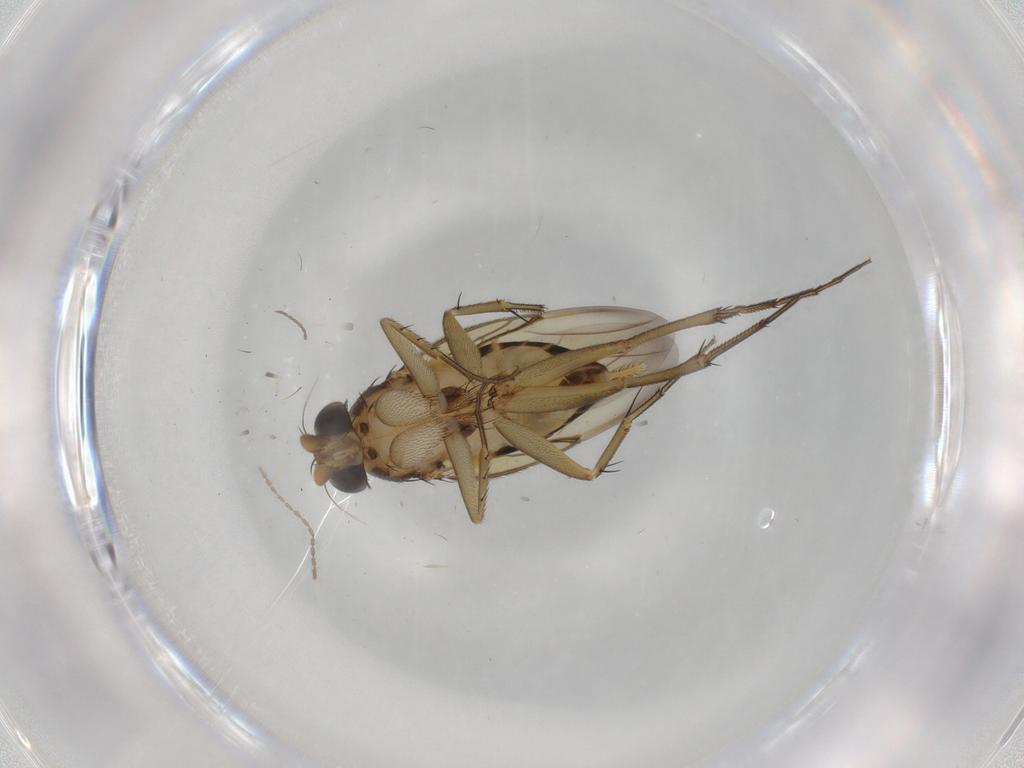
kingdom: Animalia
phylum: Arthropoda
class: Insecta
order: Diptera
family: Phoridae
